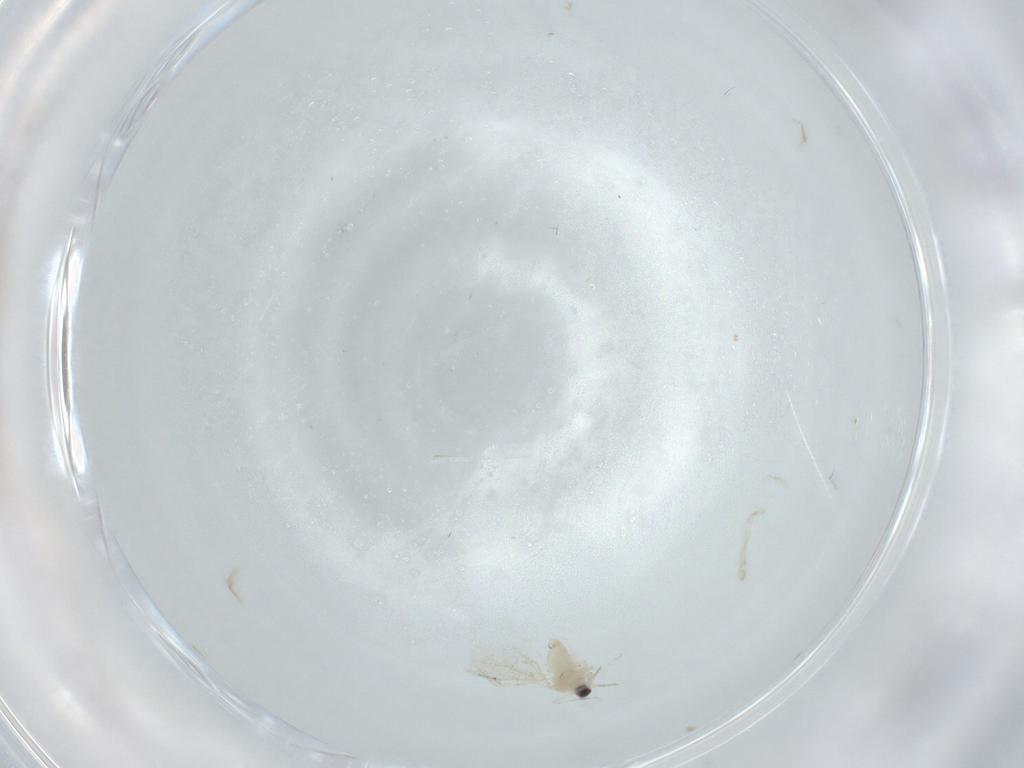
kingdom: Animalia
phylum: Arthropoda
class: Insecta
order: Diptera
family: Cecidomyiidae
